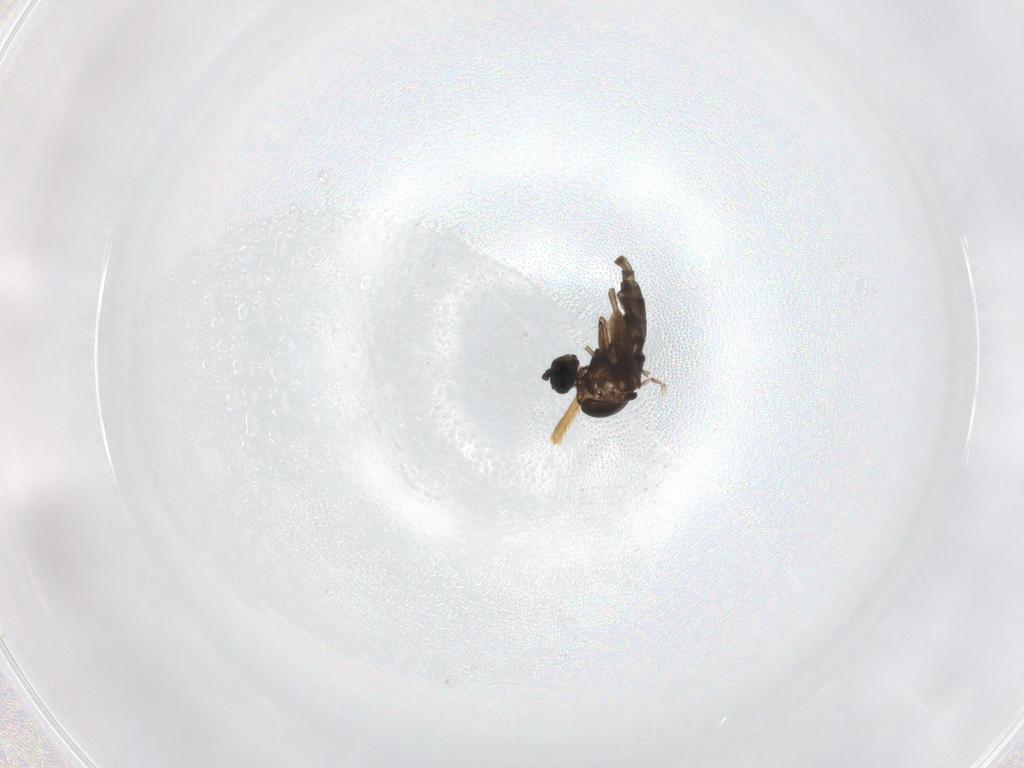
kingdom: Animalia
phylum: Arthropoda
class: Insecta
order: Diptera
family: Sciaridae
